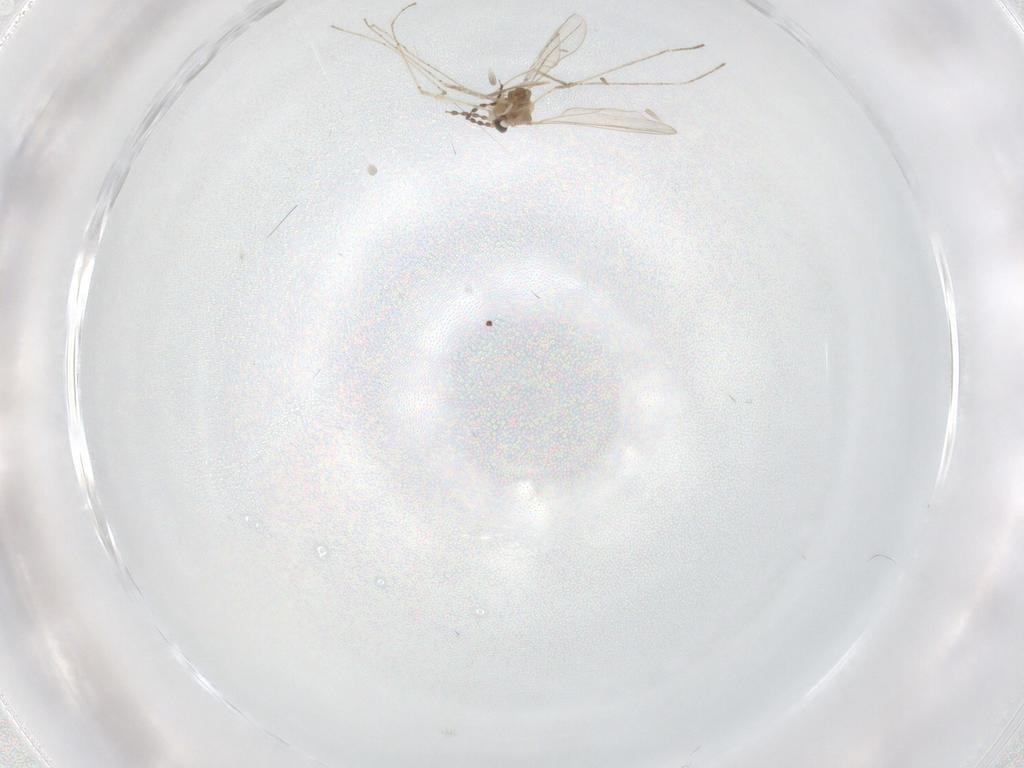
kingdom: Animalia
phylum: Arthropoda
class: Insecta
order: Diptera
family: Cecidomyiidae
